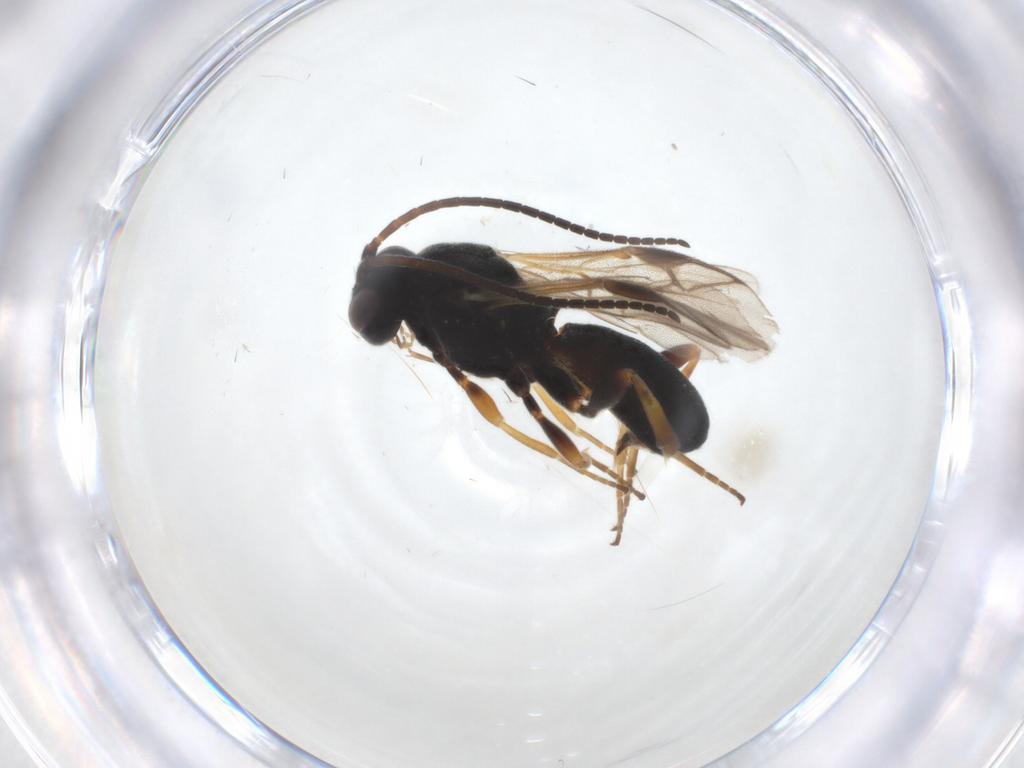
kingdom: Animalia
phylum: Arthropoda
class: Insecta
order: Hymenoptera
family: Braconidae
